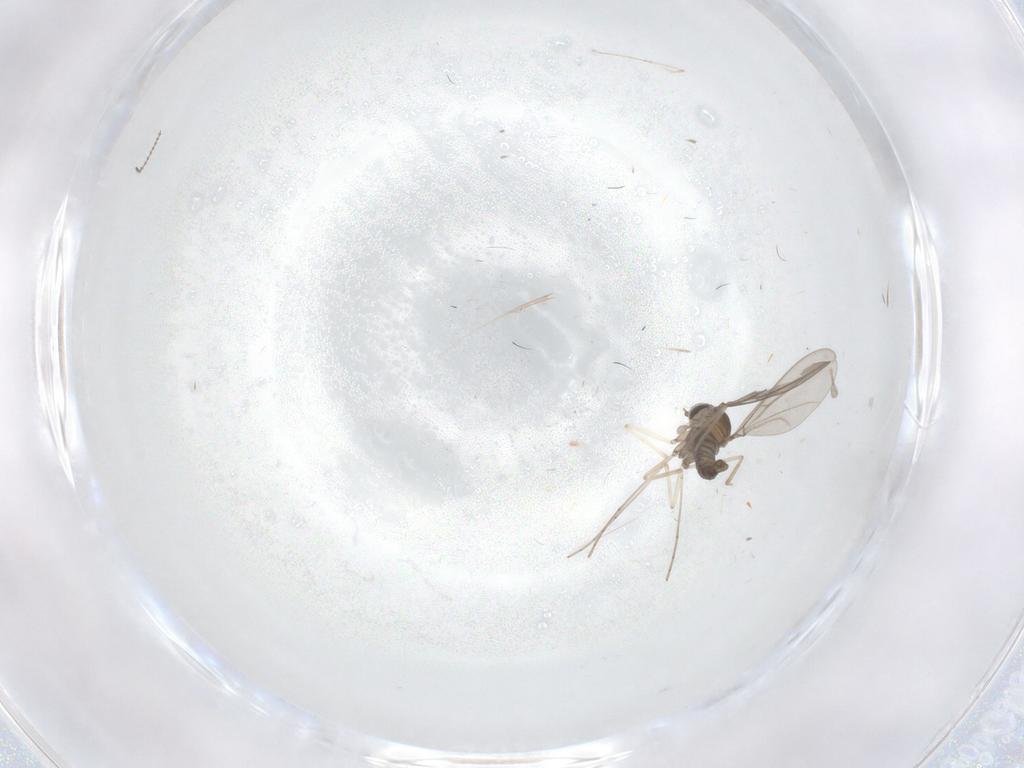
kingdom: Animalia
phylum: Arthropoda
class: Insecta
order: Diptera
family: Cecidomyiidae
